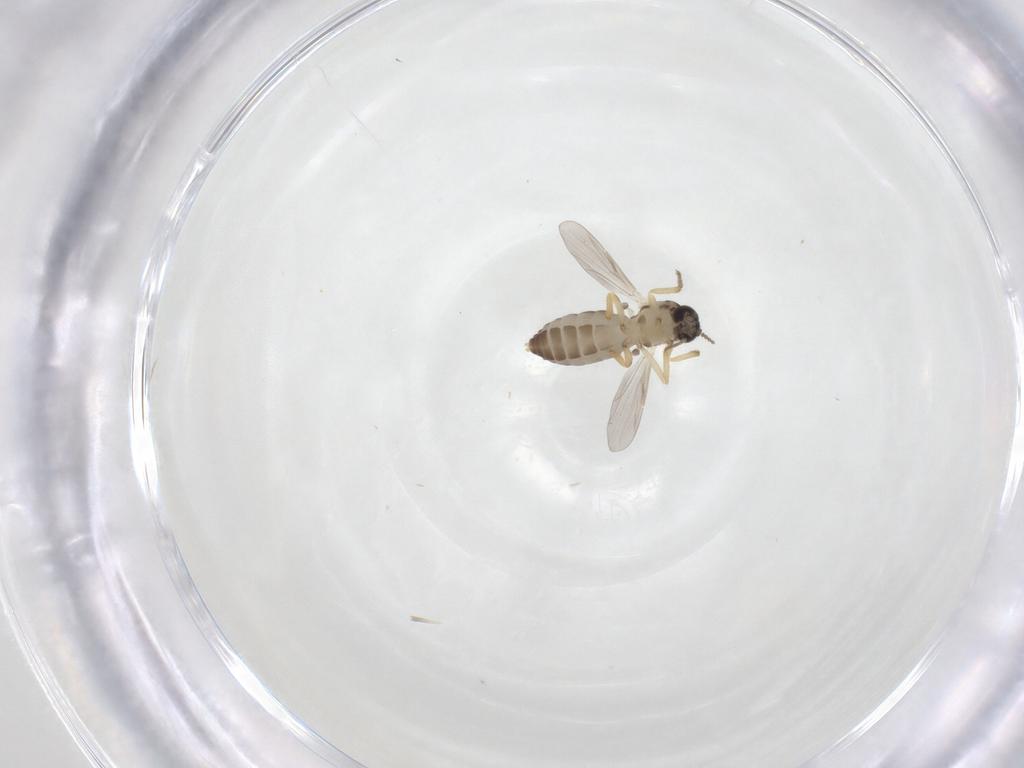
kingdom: Animalia
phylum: Arthropoda
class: Insecta
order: Diptera
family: Ceratopogonidae
